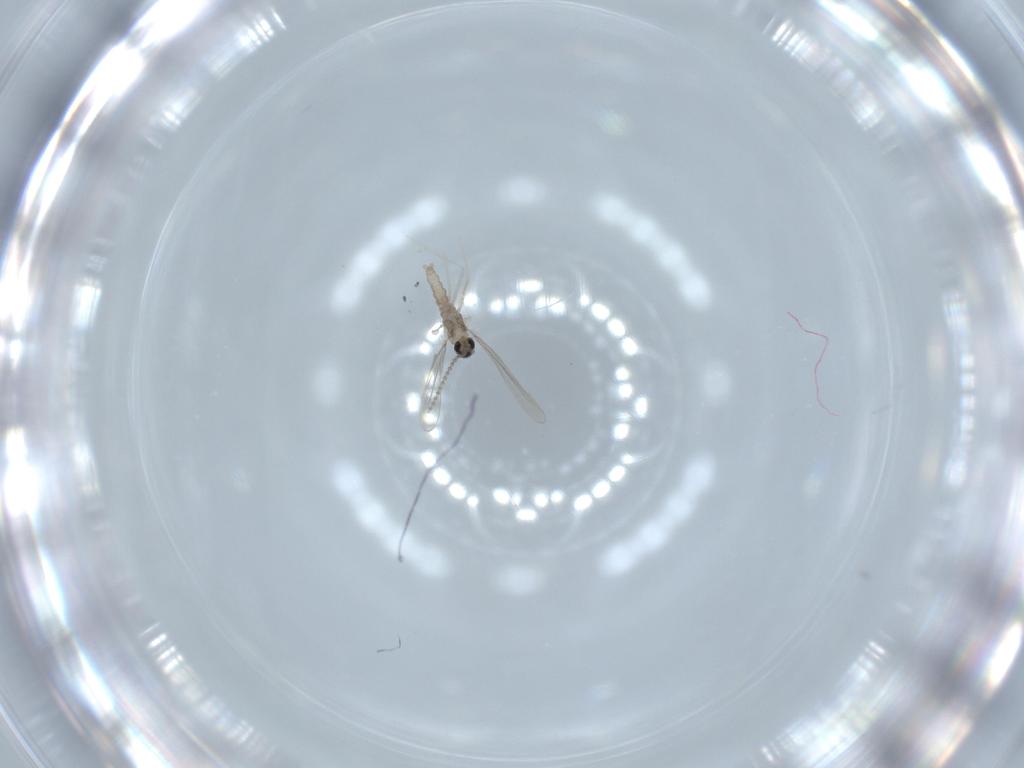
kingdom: Animalia
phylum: Arthropoda
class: Insecta
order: Diptera
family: Cecidomyiidae
